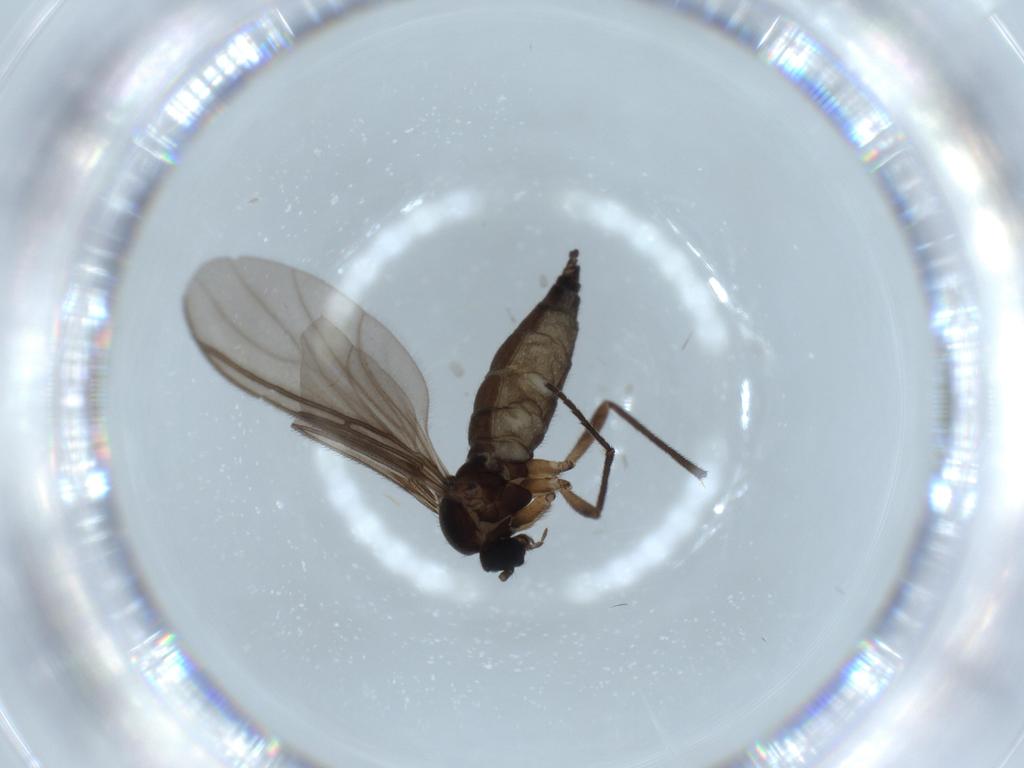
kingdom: Animalia
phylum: Arthropoda
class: Insecta
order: Diptera
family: Sciaridae
